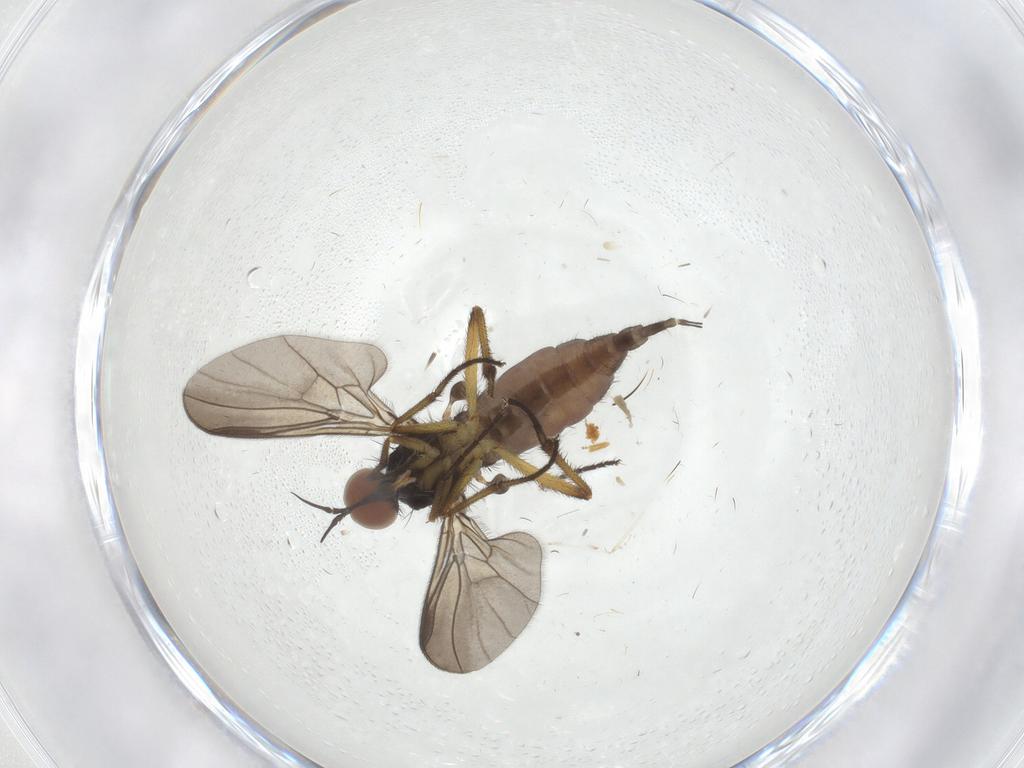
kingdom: Animalia
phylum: Arthropoda
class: Insecta
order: Diptera
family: Empididae
